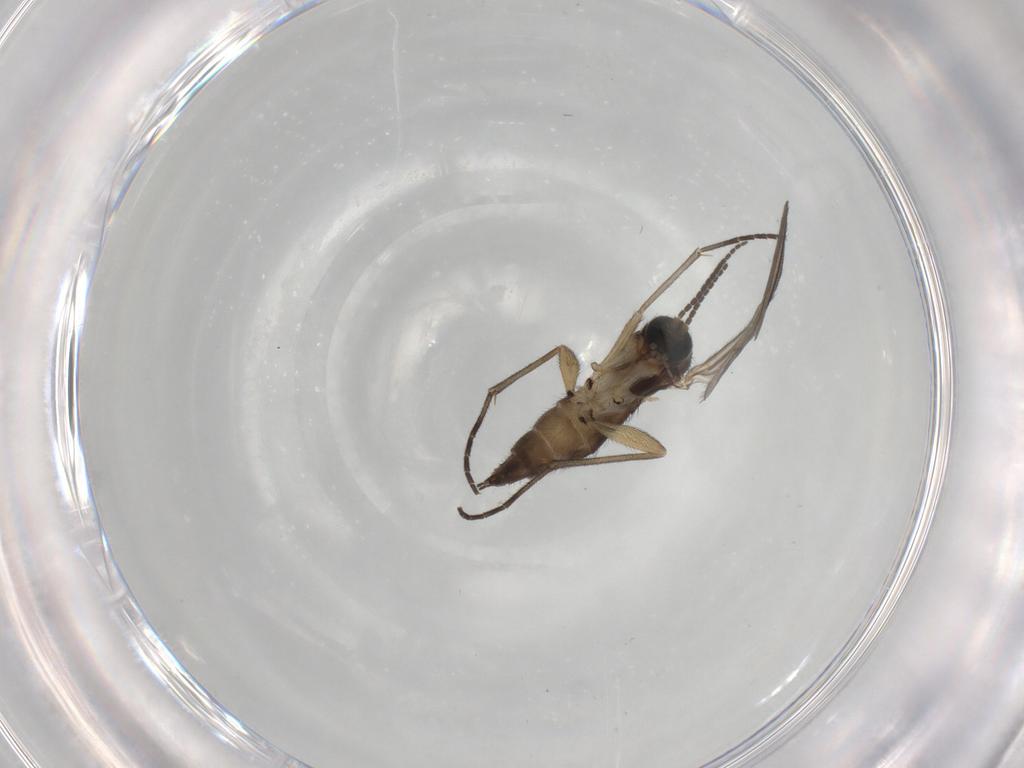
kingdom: Animalia
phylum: Arthropoda
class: Insecta
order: Diptera
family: Sciaridae
